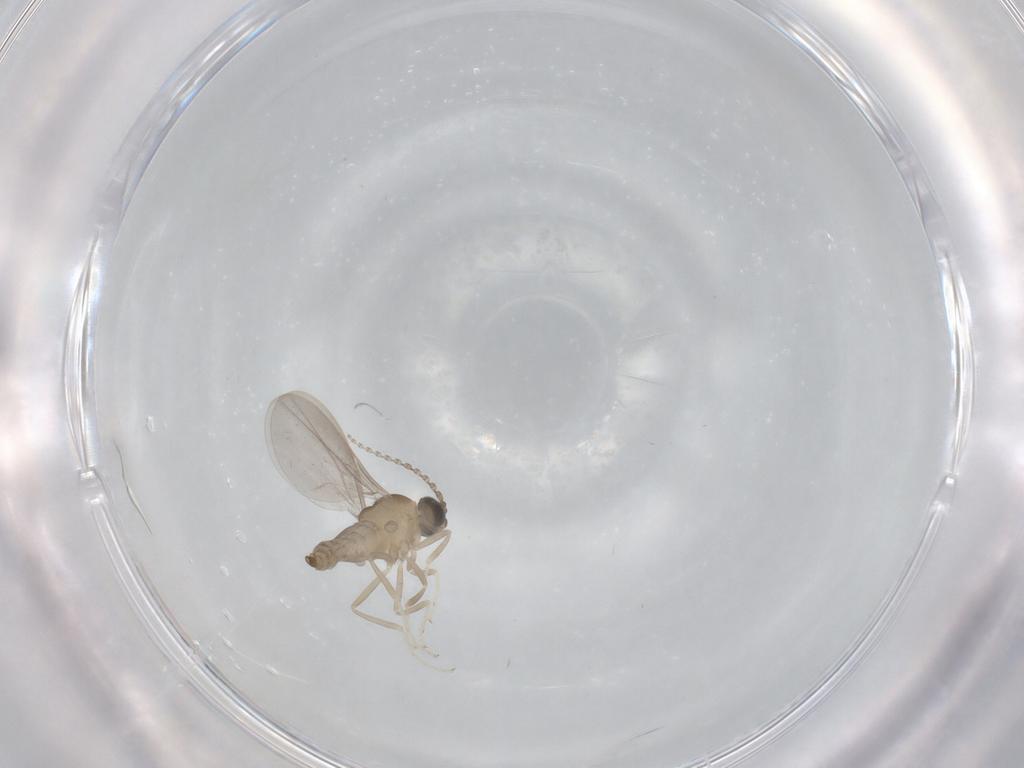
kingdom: Animalia
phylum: Arthropoda
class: Insecta
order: Diptera
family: Cecidomyiidae
